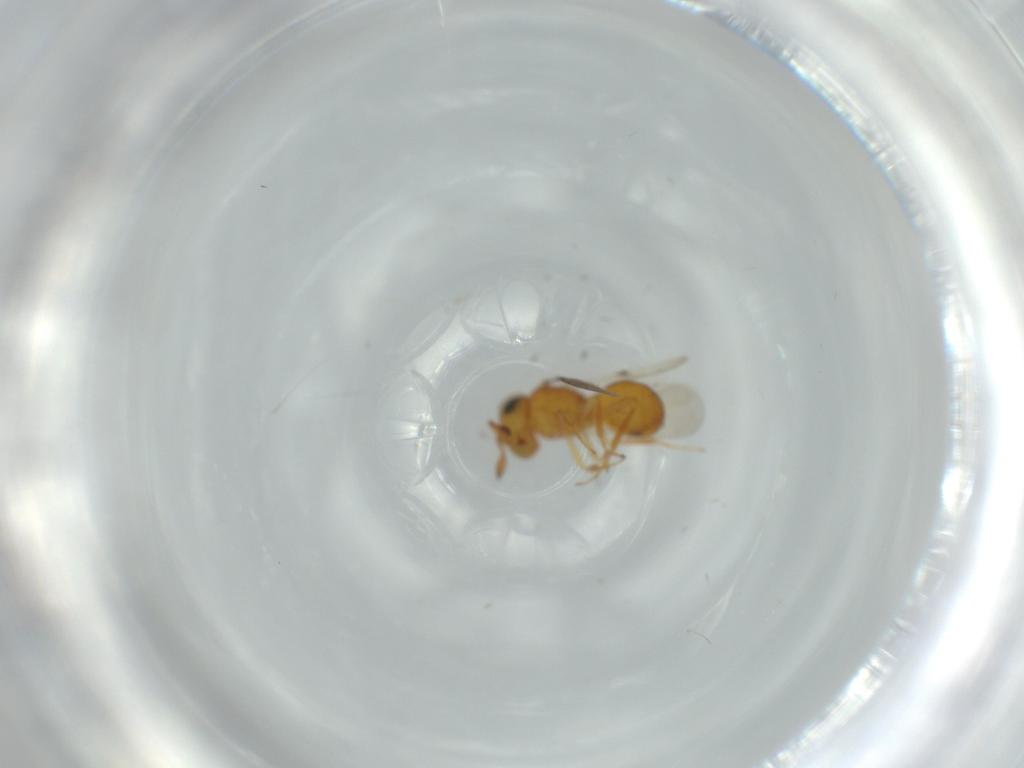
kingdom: Animalia
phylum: Arthropoda
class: Insecta
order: Hymenoptera
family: Scelionidae
